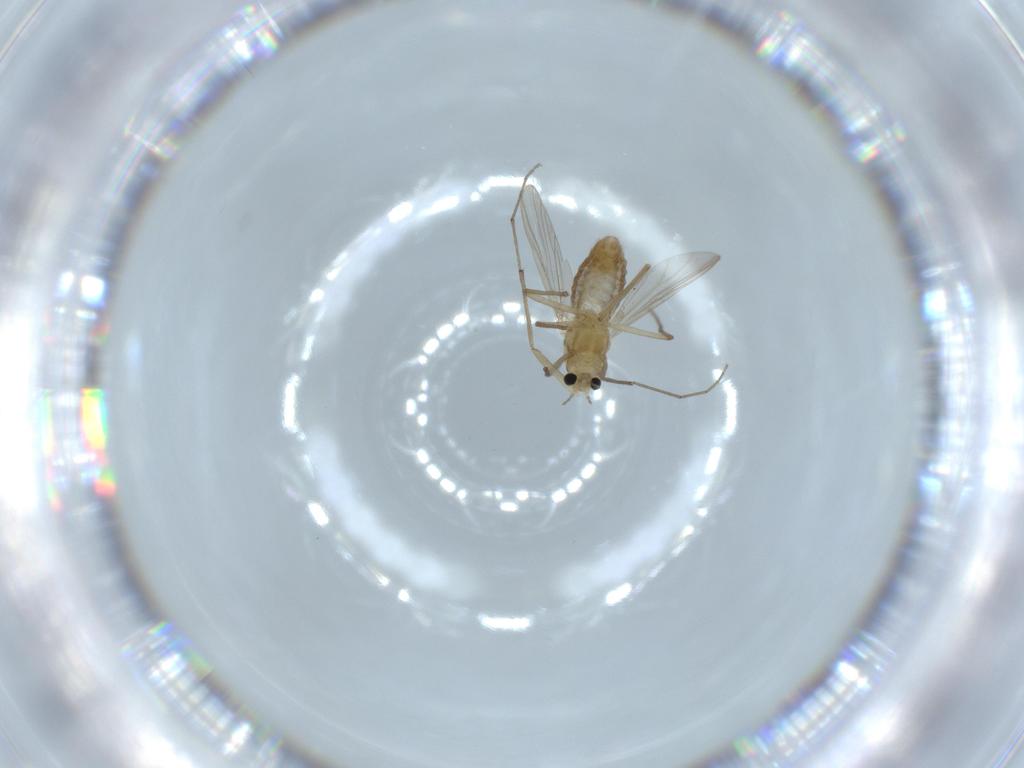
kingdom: Animalia
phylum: Arthropoda
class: Insecta
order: Diptera
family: Chironomidae
